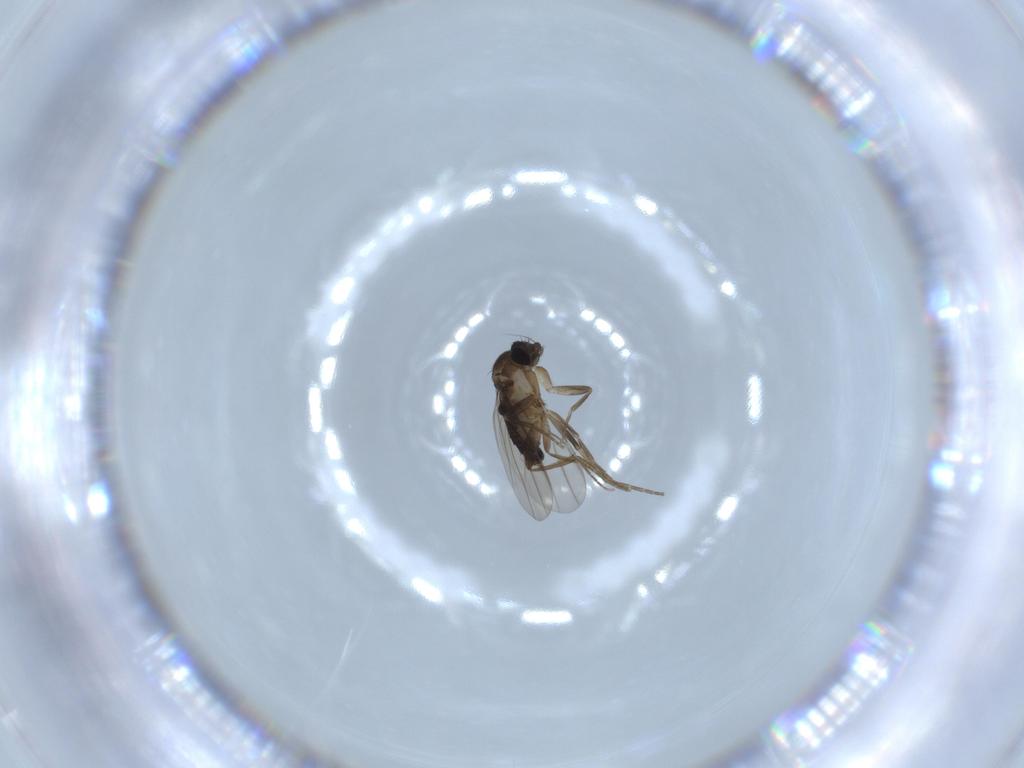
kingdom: Animalia
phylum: Arthropoda
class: Insecta
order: Diptera
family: Phoridae
